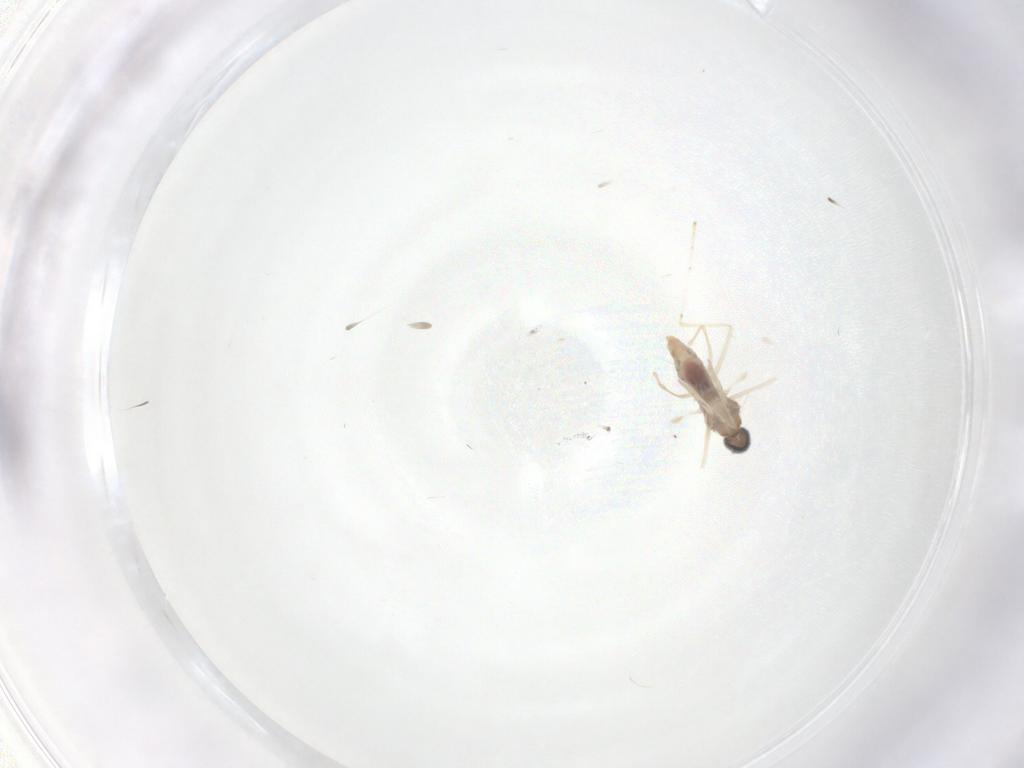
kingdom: Animalia
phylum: Arthropoda
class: Insecta
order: Diptera
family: Cecidomyiidae
